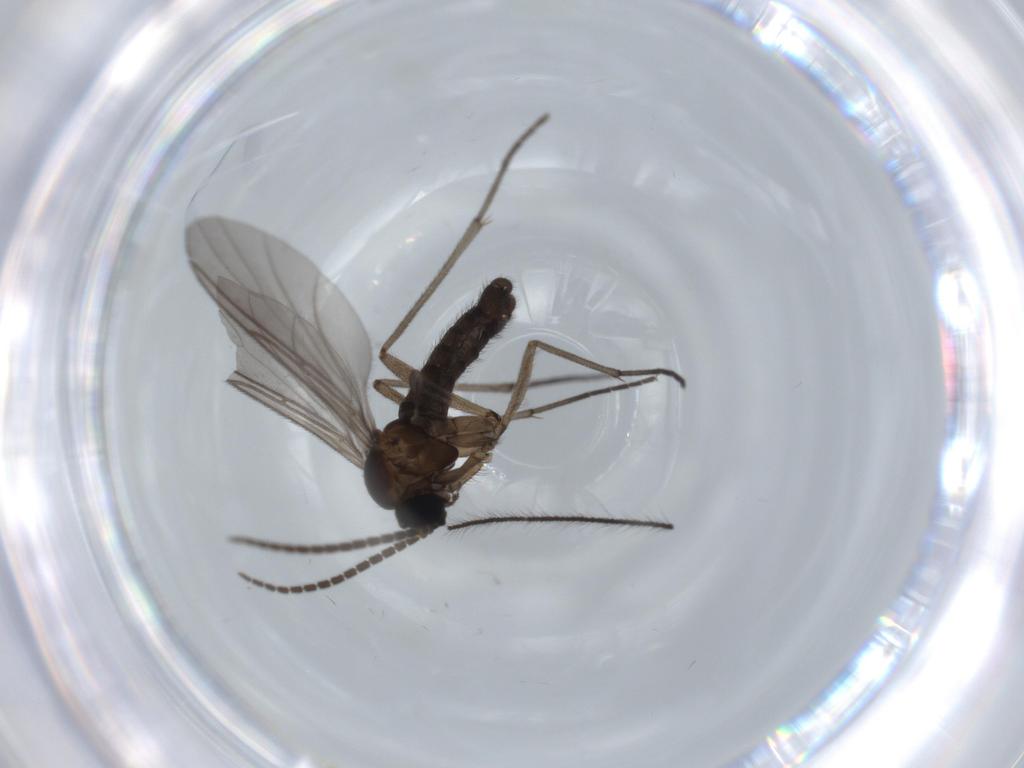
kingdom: Animalia
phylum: Arthropoda
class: Insecta
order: Diptera
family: Sciaridae
